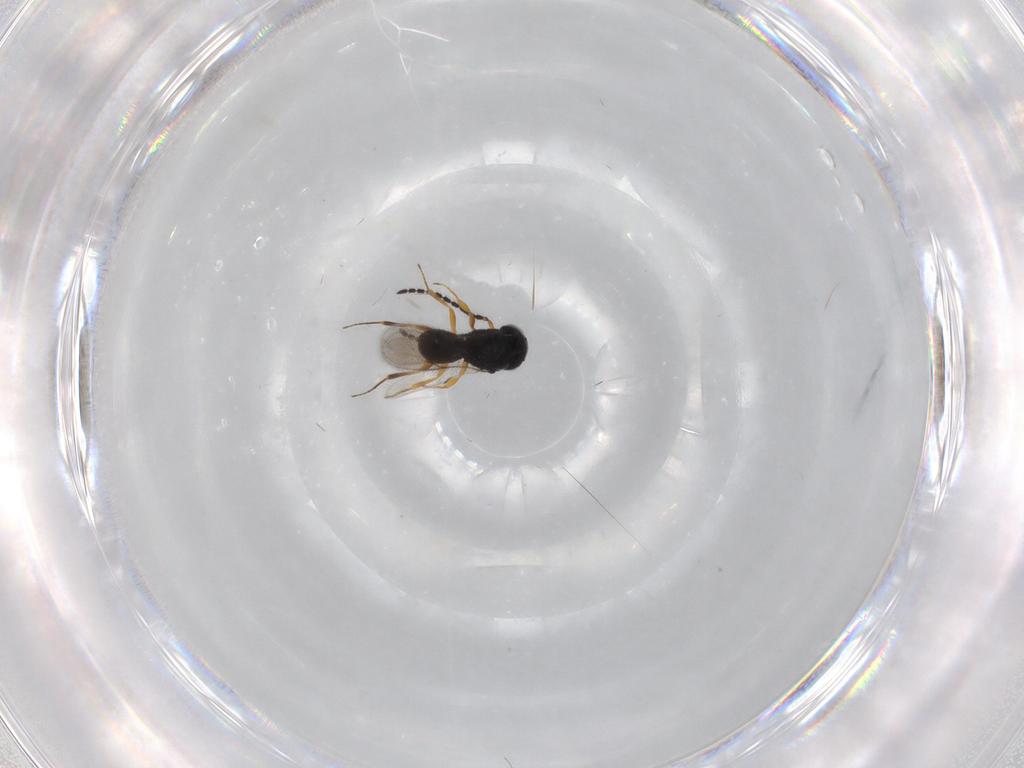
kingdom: Animalia
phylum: Arthropoda
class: Insecta
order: Hymenoptera
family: Scelionidae
